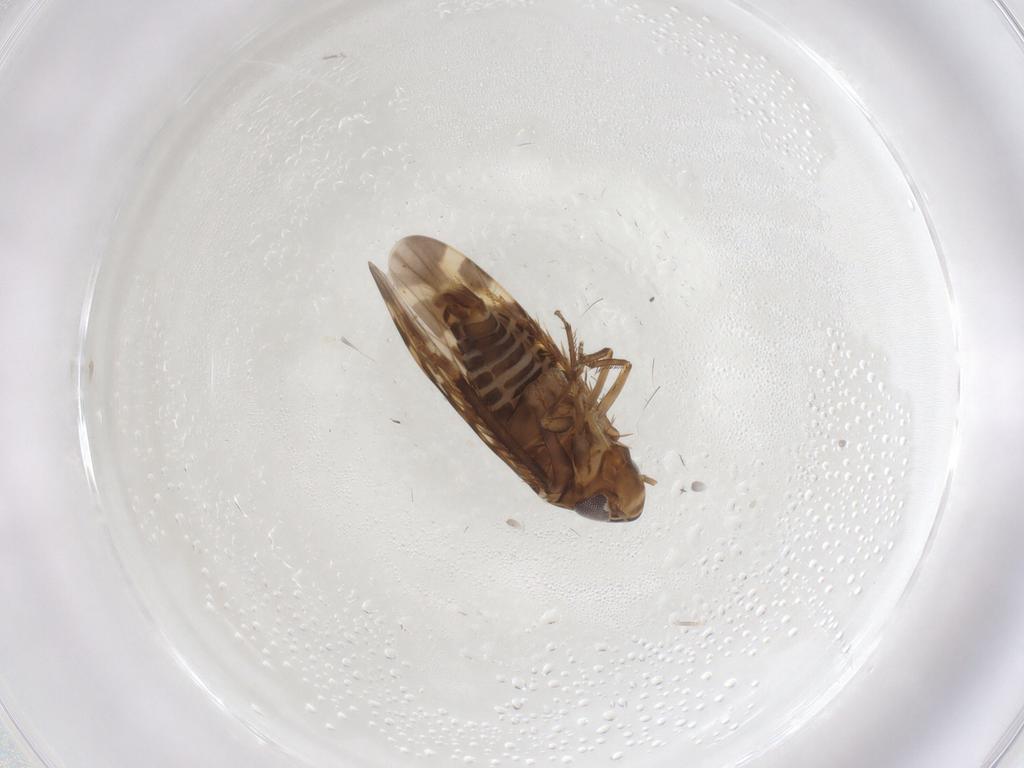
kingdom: Animalia
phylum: Arthropoda
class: Insecta
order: Hemiptera
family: Cicadellidae
